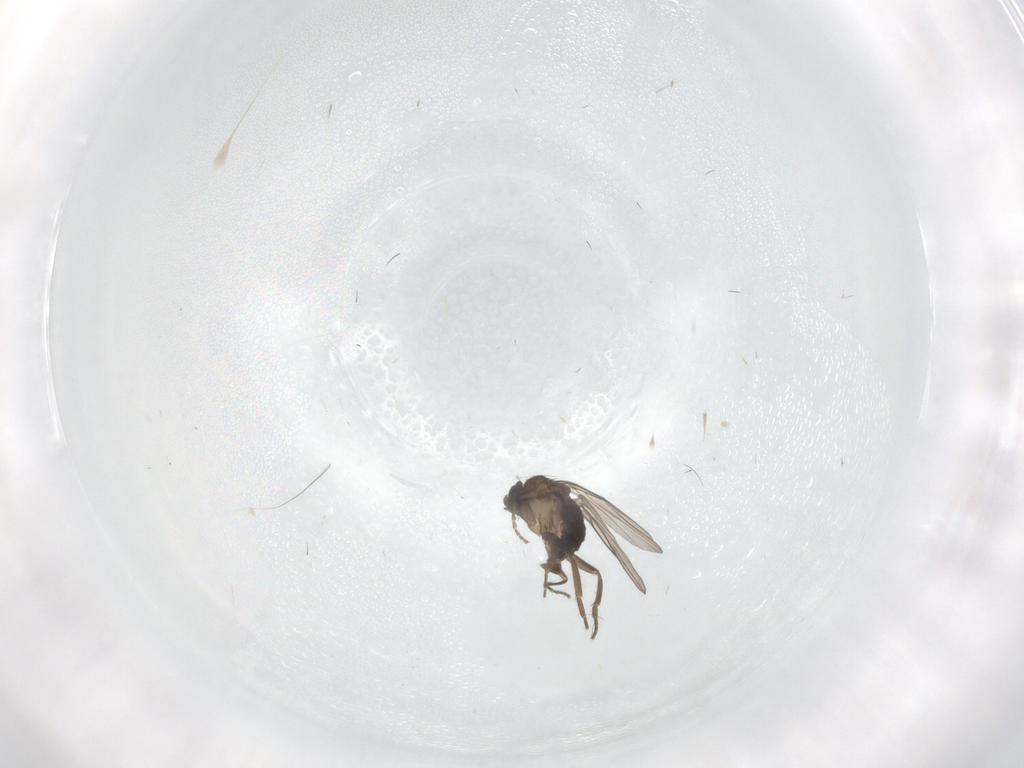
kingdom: Animalia
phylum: Arthropoda
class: Insecta
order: Diptera
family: Phoridae
